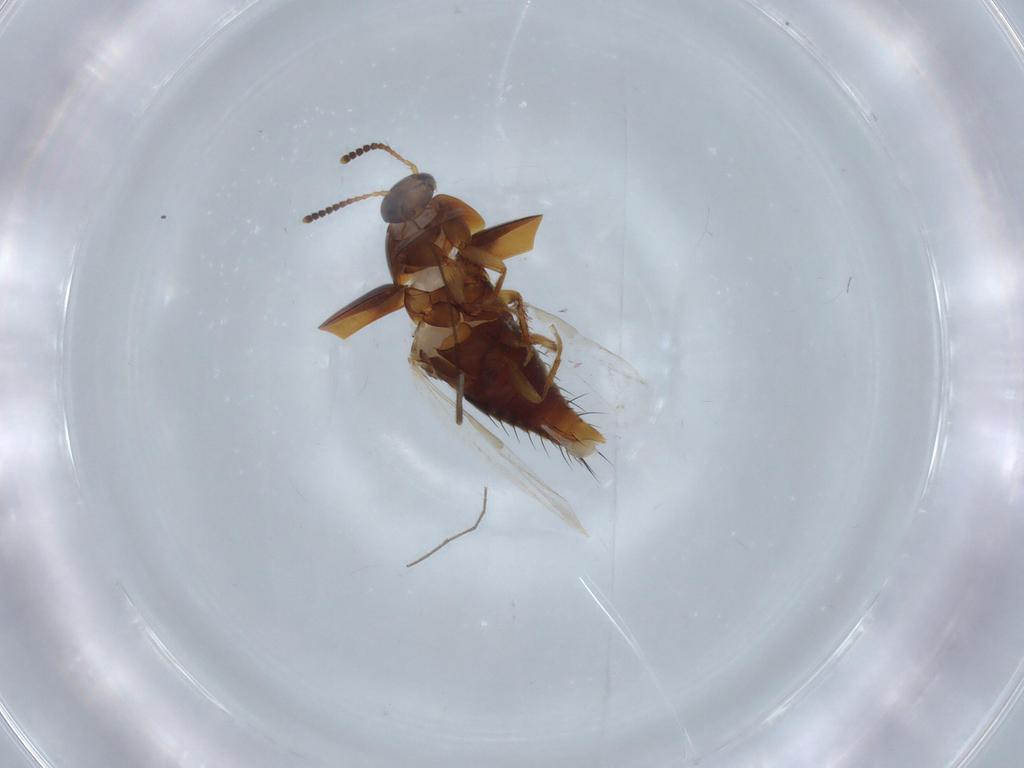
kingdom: Animalia
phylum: Arthropoda
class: Insecta
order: Coleoptera
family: Staphylinidae
